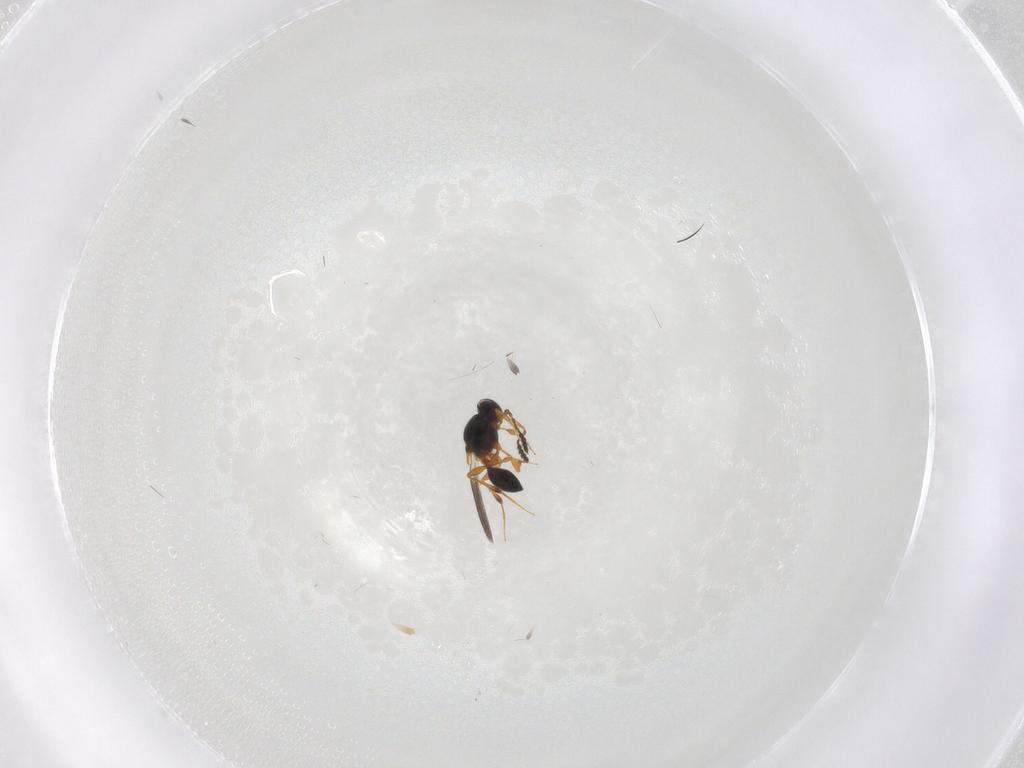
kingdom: Animalia
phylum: Arthropoda
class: Insecta
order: Hymenoptera
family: Platygastridae
